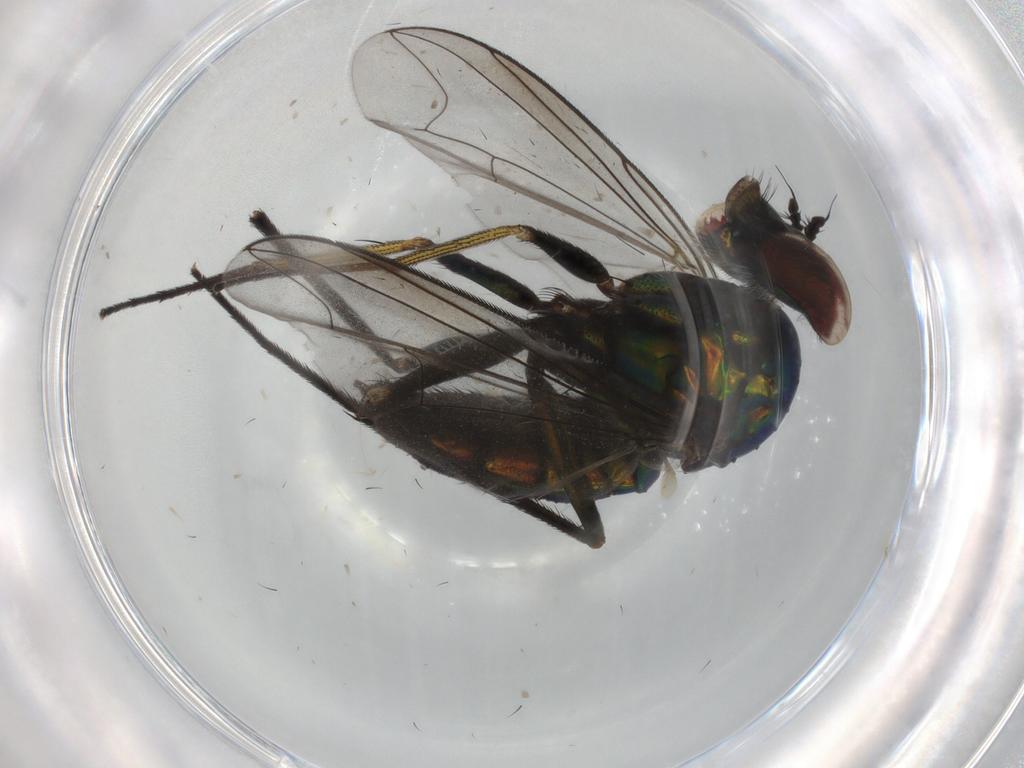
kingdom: Animalia
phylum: Arthropoda
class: Insecta
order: Diptera
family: Dolichopodidae
